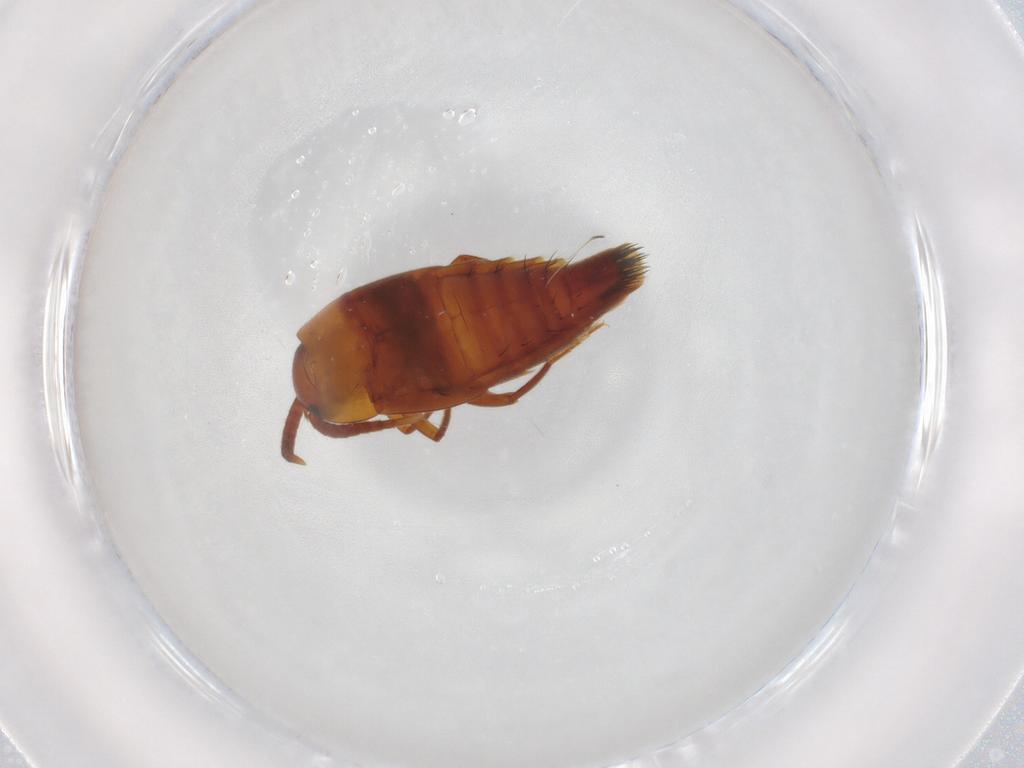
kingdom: Animalia
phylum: Arthropoda
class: Insecta
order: Coleoptera
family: Staphylinidae
